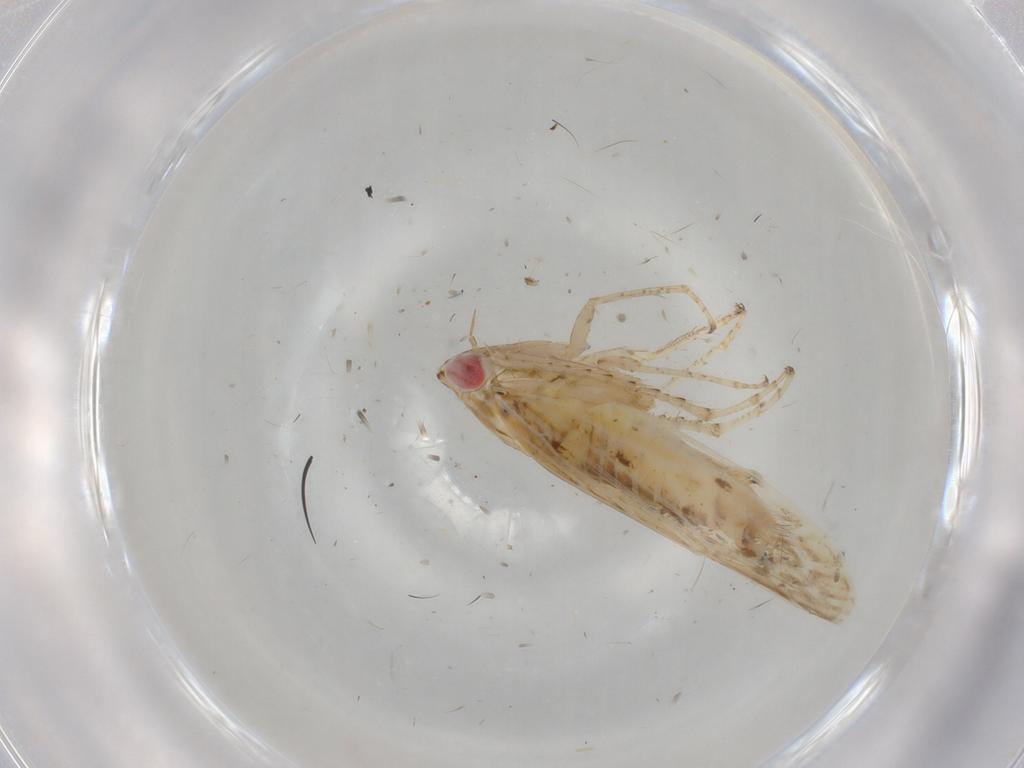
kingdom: Animalia
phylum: Arthropoda
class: Insecta
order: Hemiptera
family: Cicadellidae
